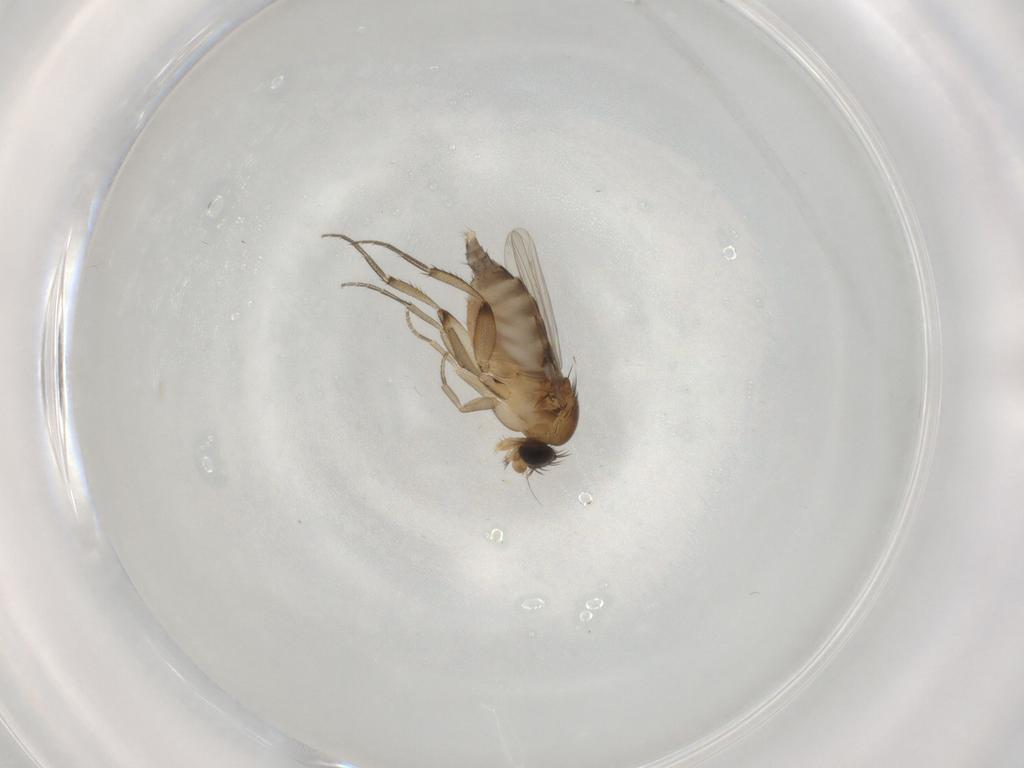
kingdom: Animalia
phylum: Arthropoda
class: Insecta
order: Diptera
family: Phoridae
